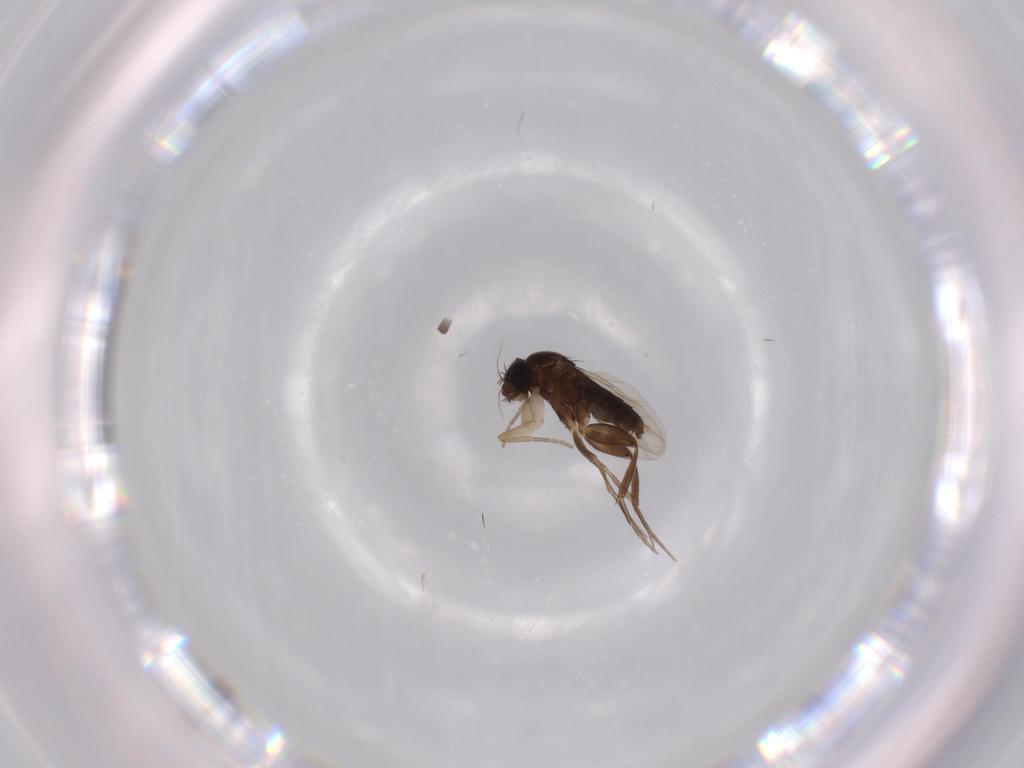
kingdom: Animalia
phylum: Arthropoda
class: Insecta
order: Diptera
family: Phoridae
